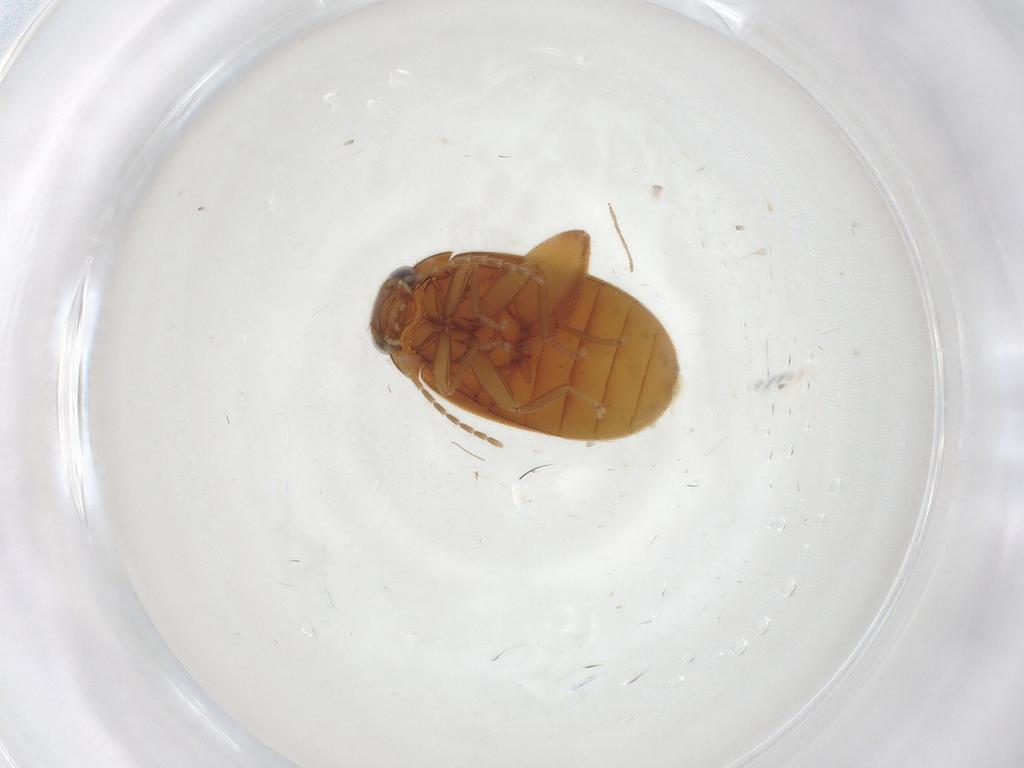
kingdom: Animalia
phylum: Arthropoda
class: Insecta
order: Coleoptera
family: Scirtidae
